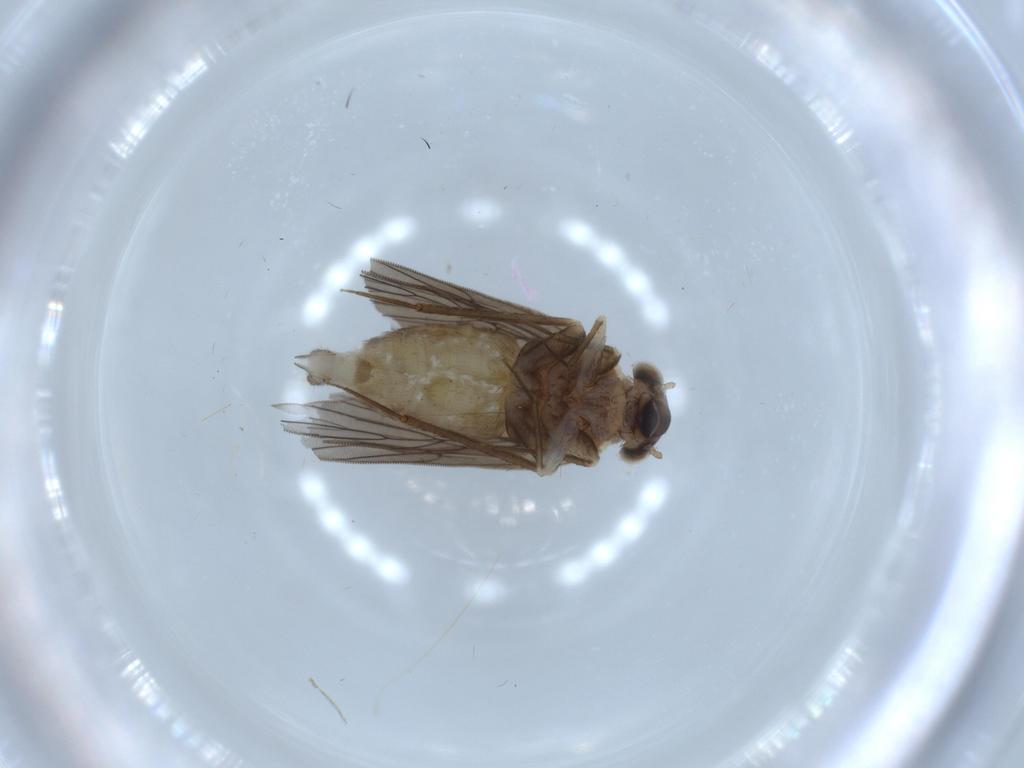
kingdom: Animalia
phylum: Arthropoda
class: Insecta
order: Psocodea
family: Lepidopsocidae
